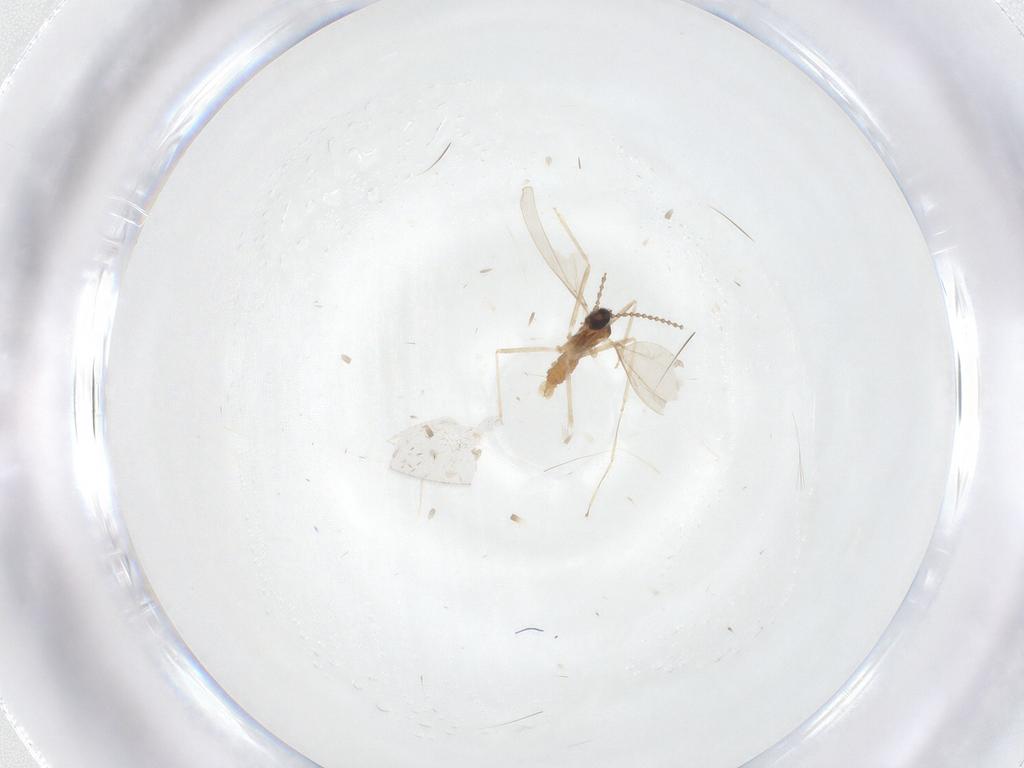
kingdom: Animalia
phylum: Arthropoda
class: Insecta
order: Diptera
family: Cecidomyiidae
